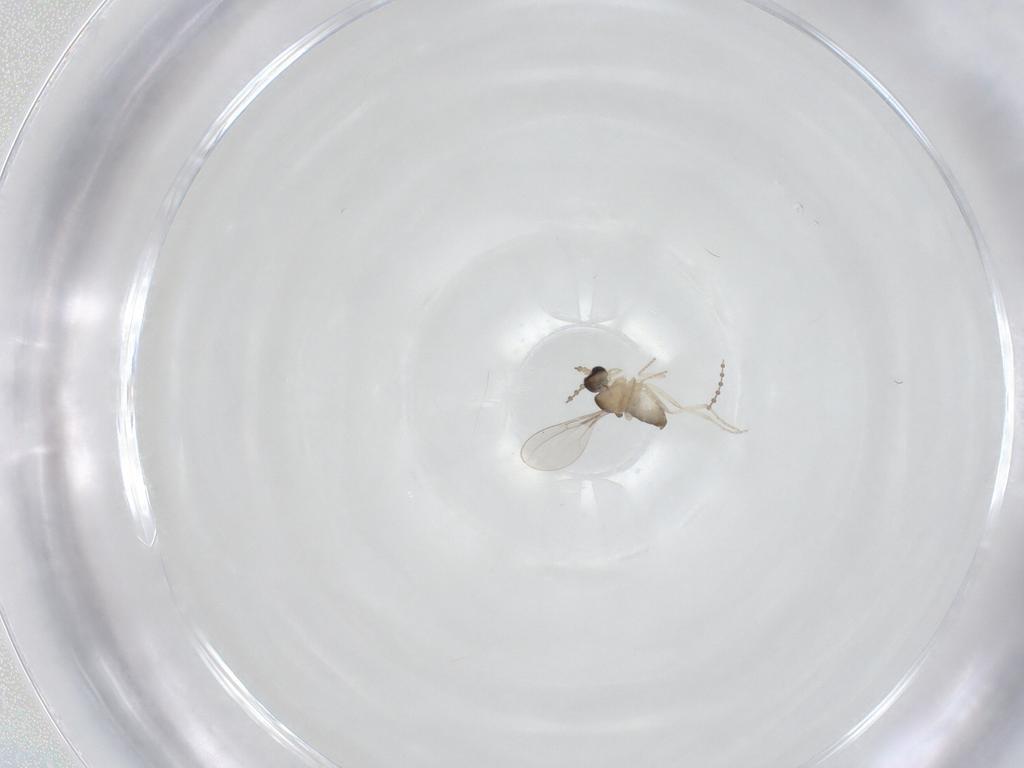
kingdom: Animalia
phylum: Arthropoda
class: Insecta
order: Diptera
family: Cecidomyiidae
